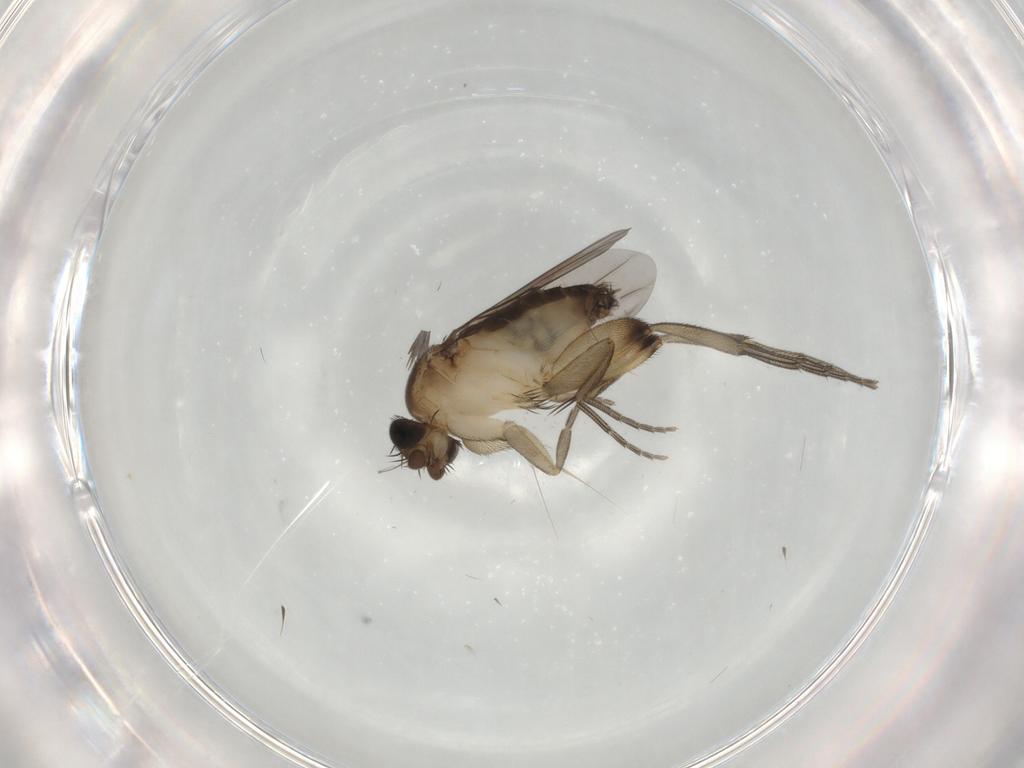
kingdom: Animalia
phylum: Arthropoda
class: Insecta
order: Diptera
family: Phoridae
